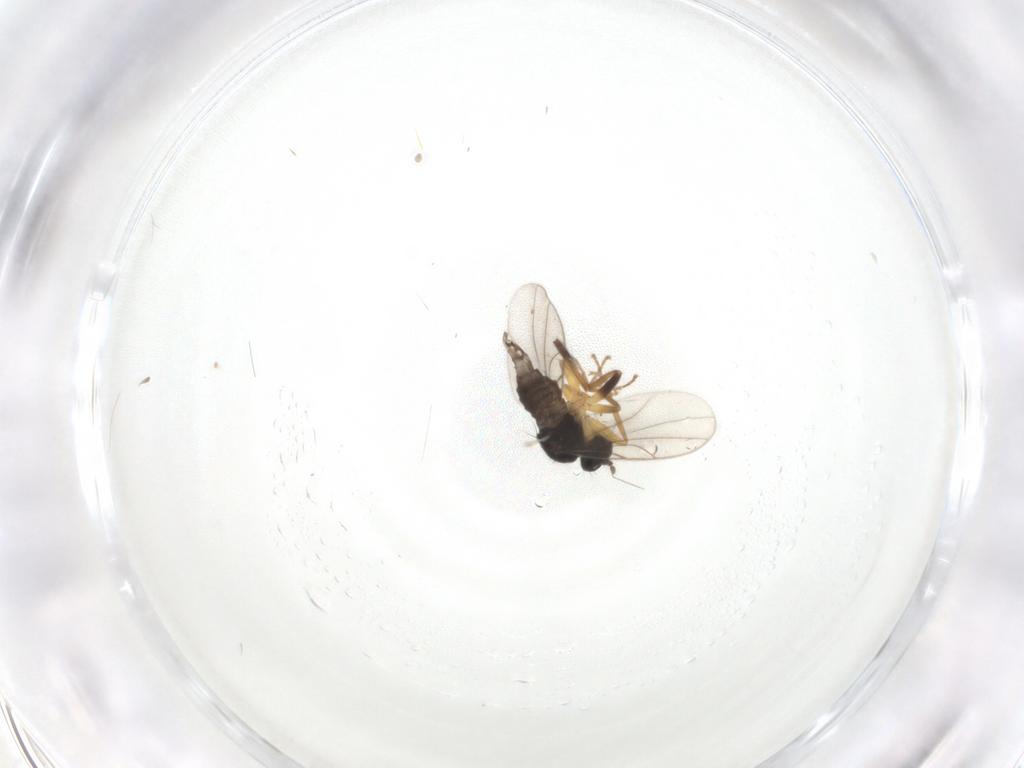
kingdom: Animalia
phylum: Arthropoda
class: Insecta
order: Diptera
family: Hybotidae
